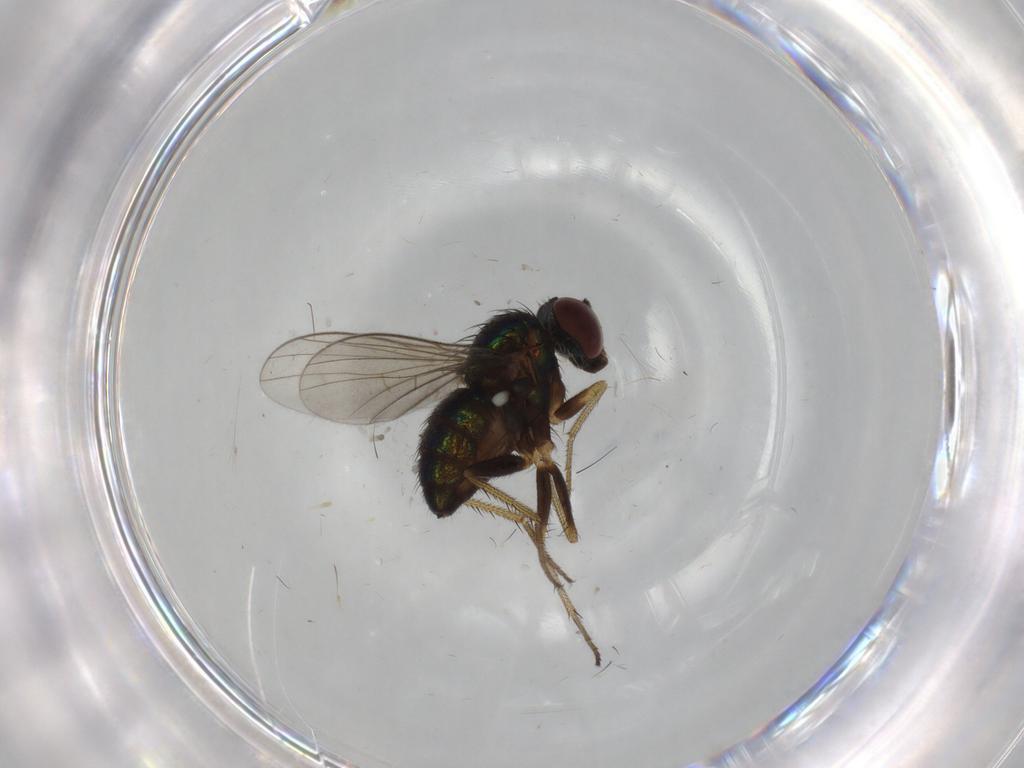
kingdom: Animalia
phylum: Arthropoda
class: Insecta
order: Diptera
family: Dolichopodidae
